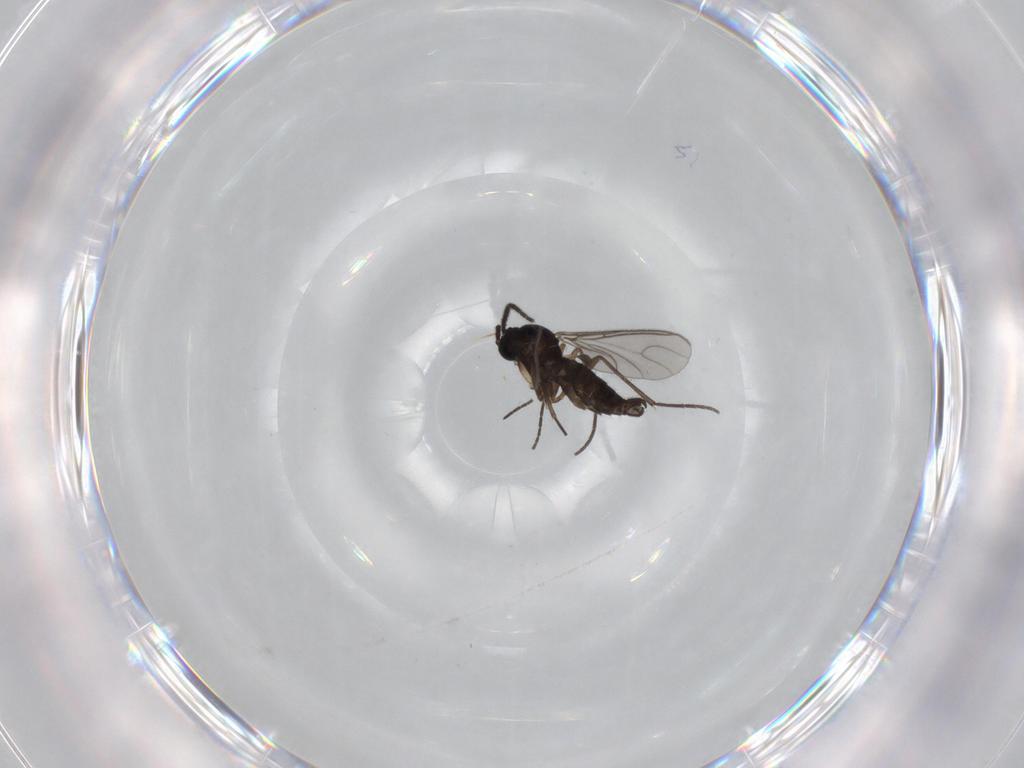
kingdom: Animalia
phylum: Arthropoda
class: Insecta
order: Diptera
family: Sciaridae
